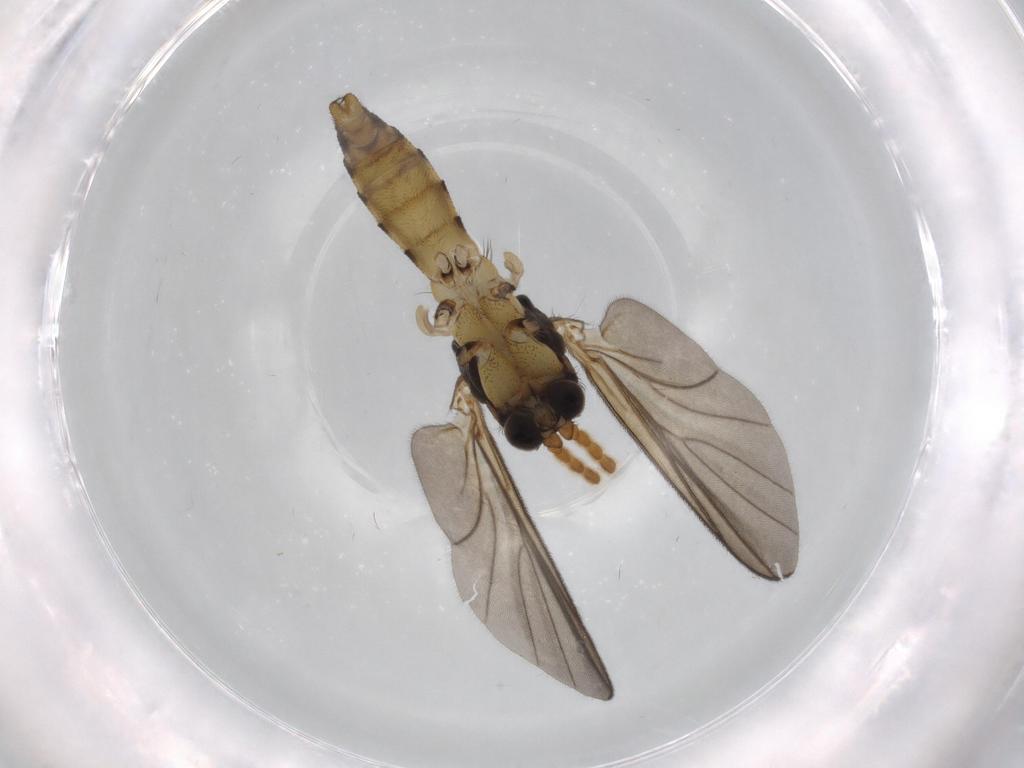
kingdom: Animalia
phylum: Arthropoda
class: Insecta
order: Diptera
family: Sciaridae
